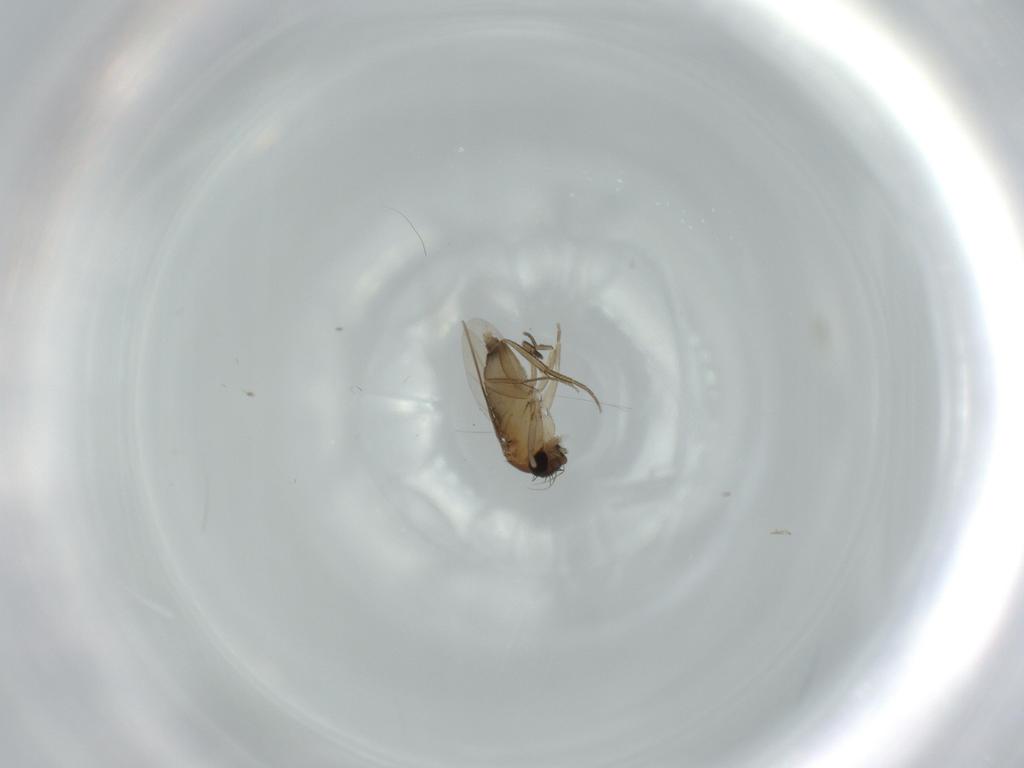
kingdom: Animalia
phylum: Arthropoda
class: Insecta
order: Diptera
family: Phoridae
